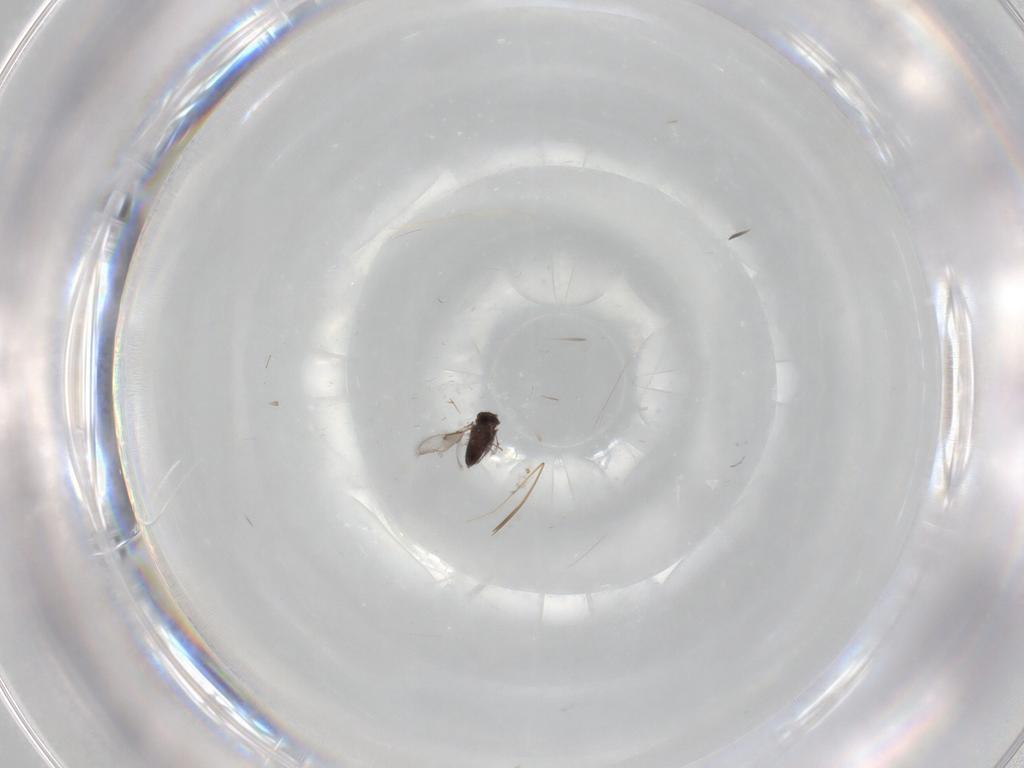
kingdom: Animalia
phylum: Arthropoda
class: Insecta
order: Hymenoptera
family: Trichogrammatidae
